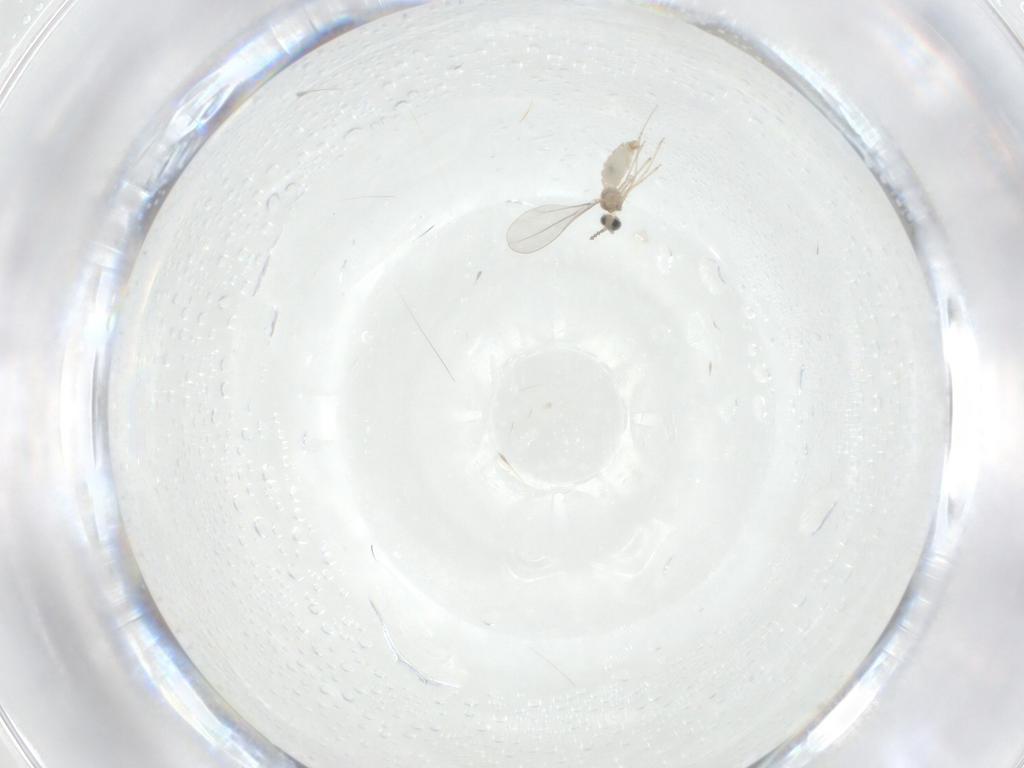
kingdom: Animalia
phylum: Arthropoda
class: Insecta
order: Diptera
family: Cecidomyiidae
